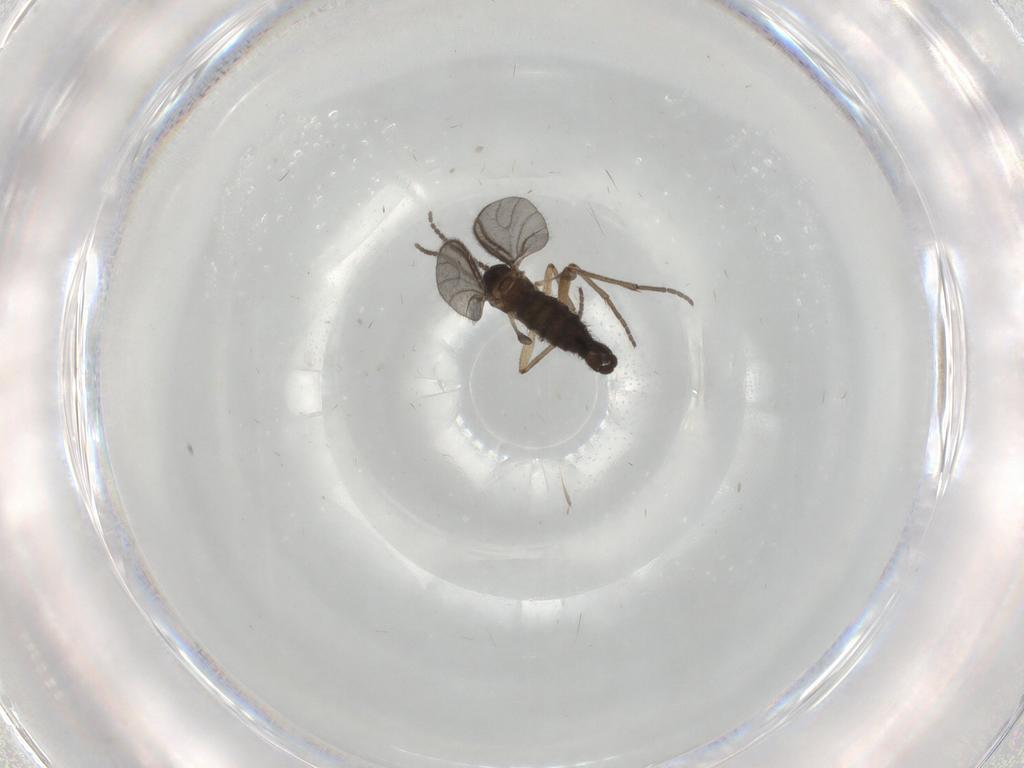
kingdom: Animalia
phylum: Arthropoda
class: Insecta
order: Diptera
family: Sciaridae
